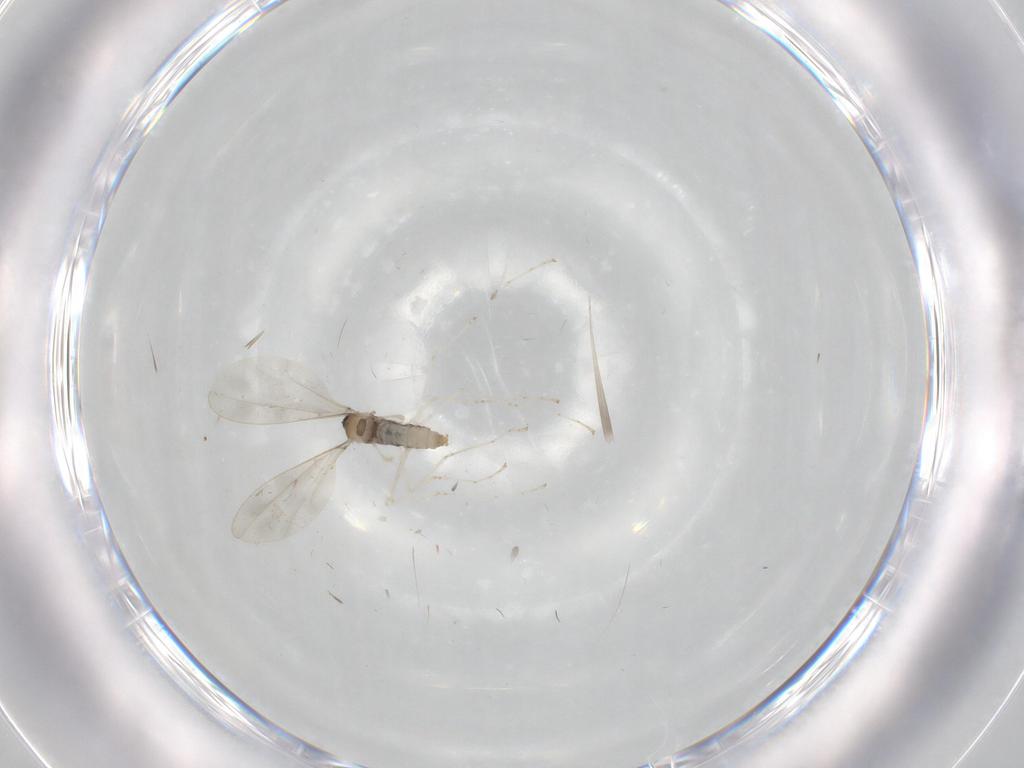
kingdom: Animalia
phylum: Arthropoda
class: Insecta
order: Diptera
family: Cecidomyiidae
